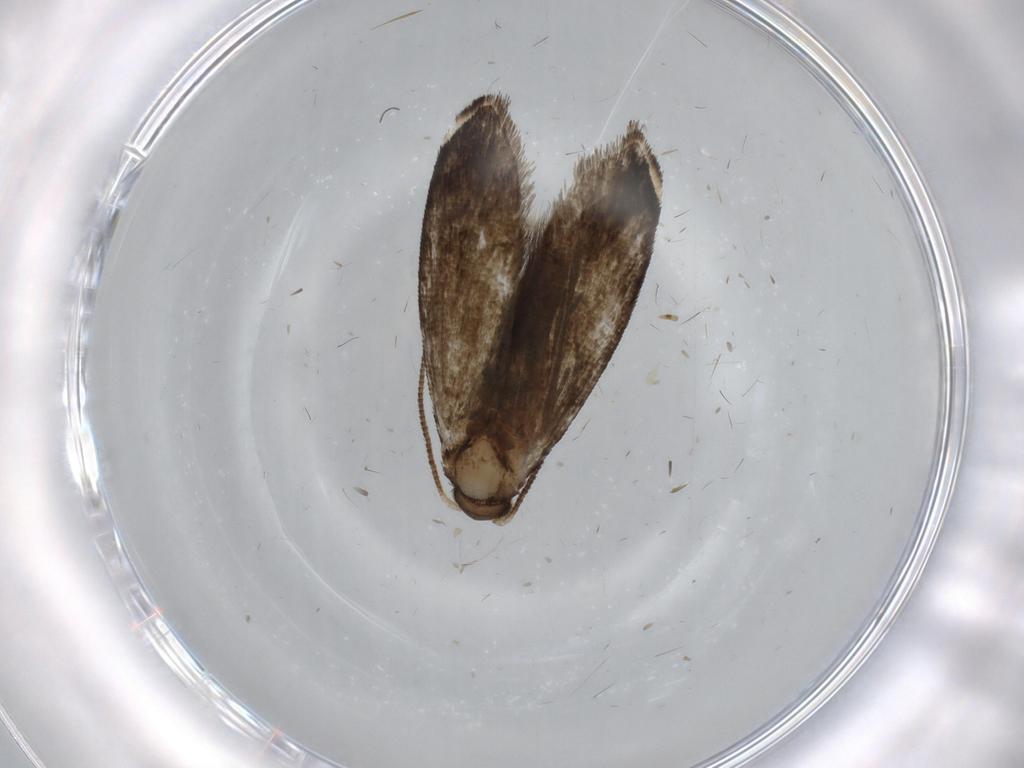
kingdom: Animalia
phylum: Arthropoda
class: Insecta
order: Lepidoptera
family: Tineidae
